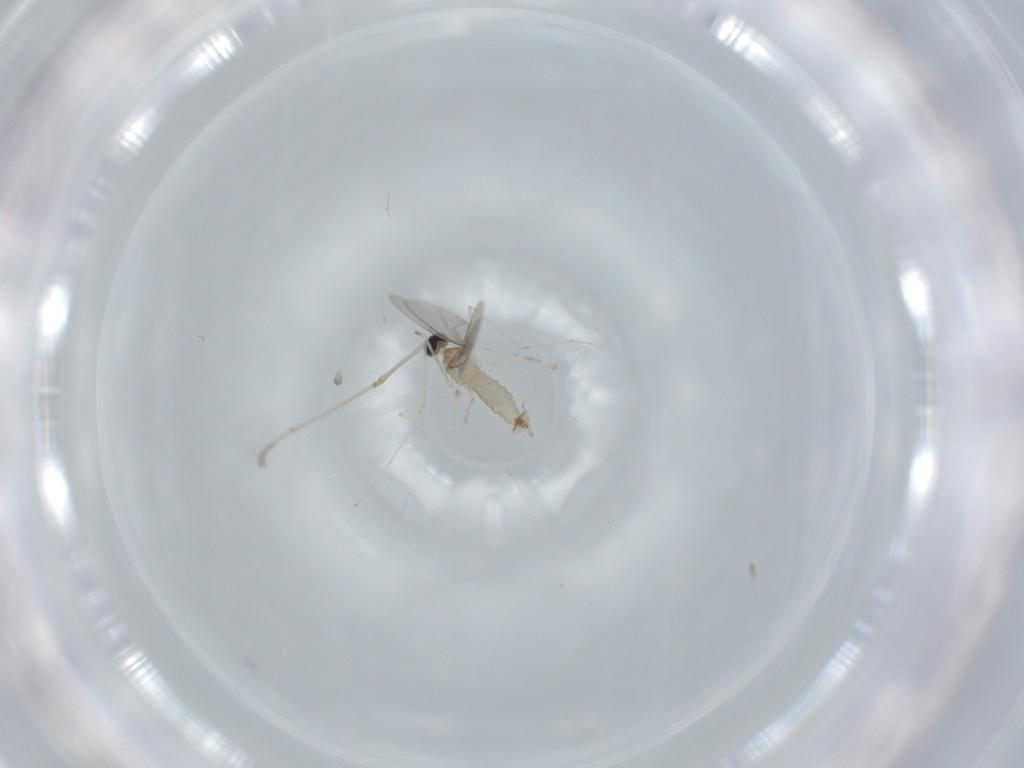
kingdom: Animalia
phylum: Arthropoda
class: Insecta
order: Diptera
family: Cecidomyiidae
